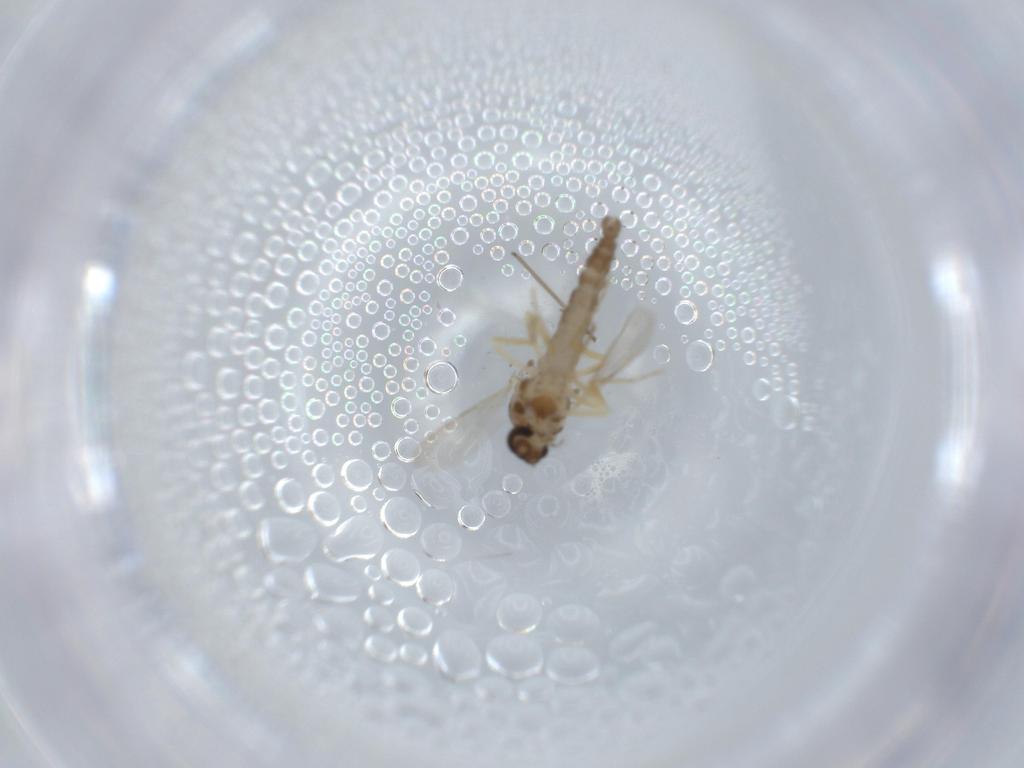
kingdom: Animalia
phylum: Arthropoda
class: Insecta
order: Diptera
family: Ceratopogonidae
